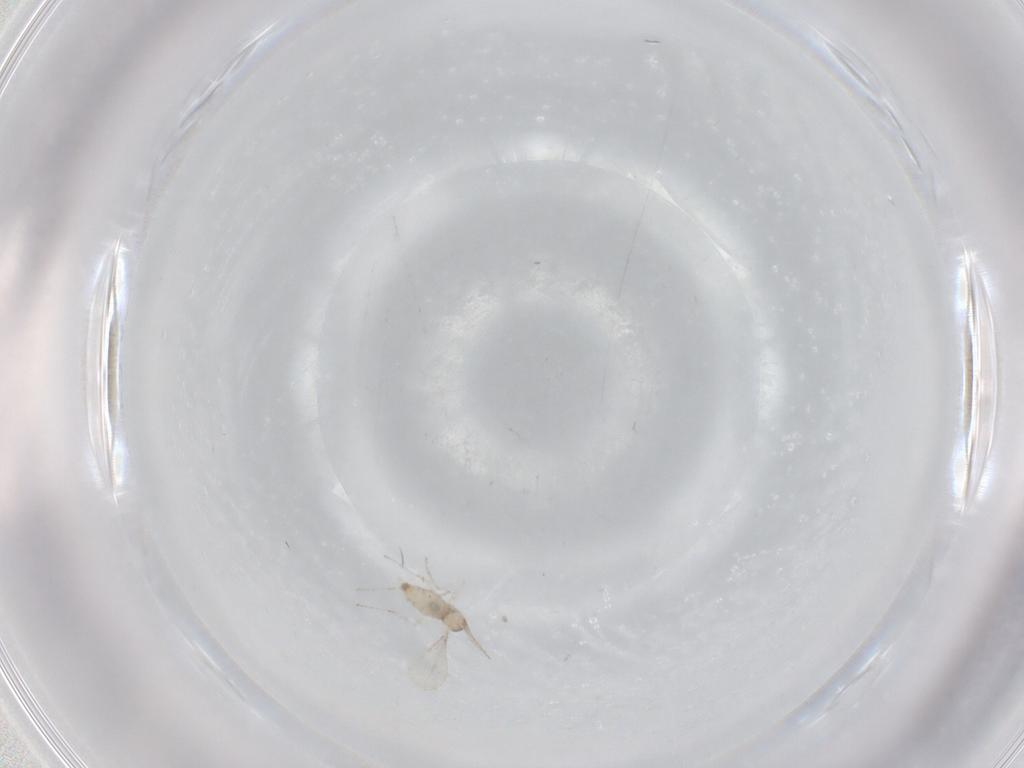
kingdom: Animalia
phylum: Arthropoda
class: Insecta
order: Diptera
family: Cecidomyiidae
